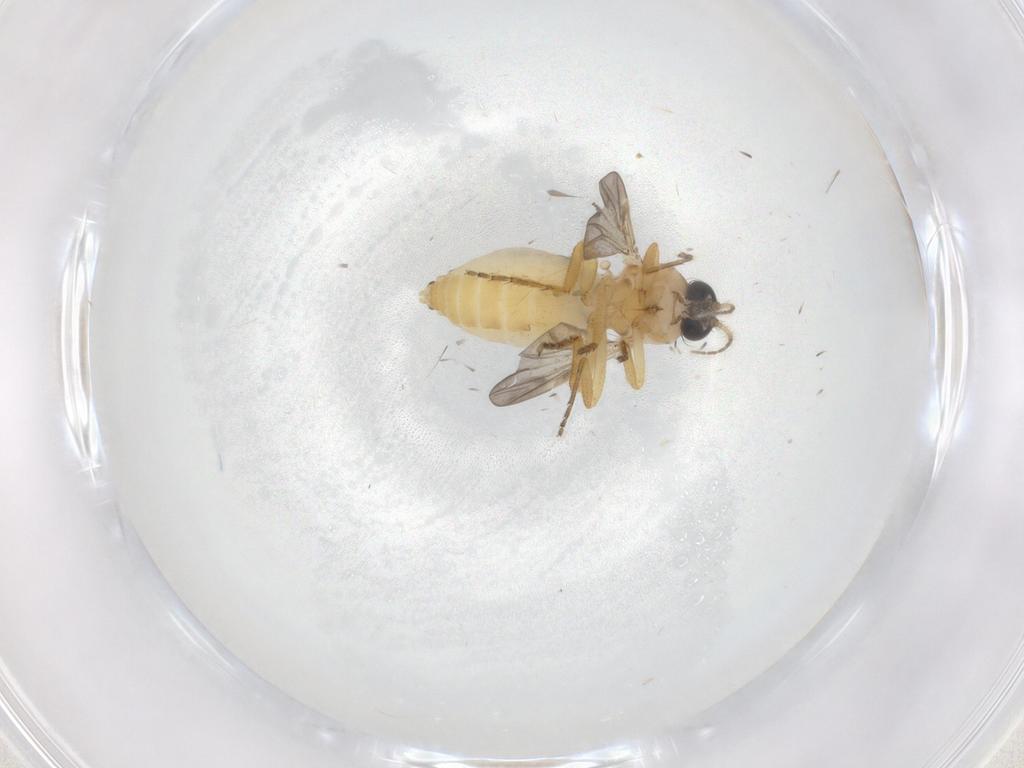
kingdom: Animalia
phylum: Arthropoda
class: Insecta
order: Diptera
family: Ceratopogonidae
